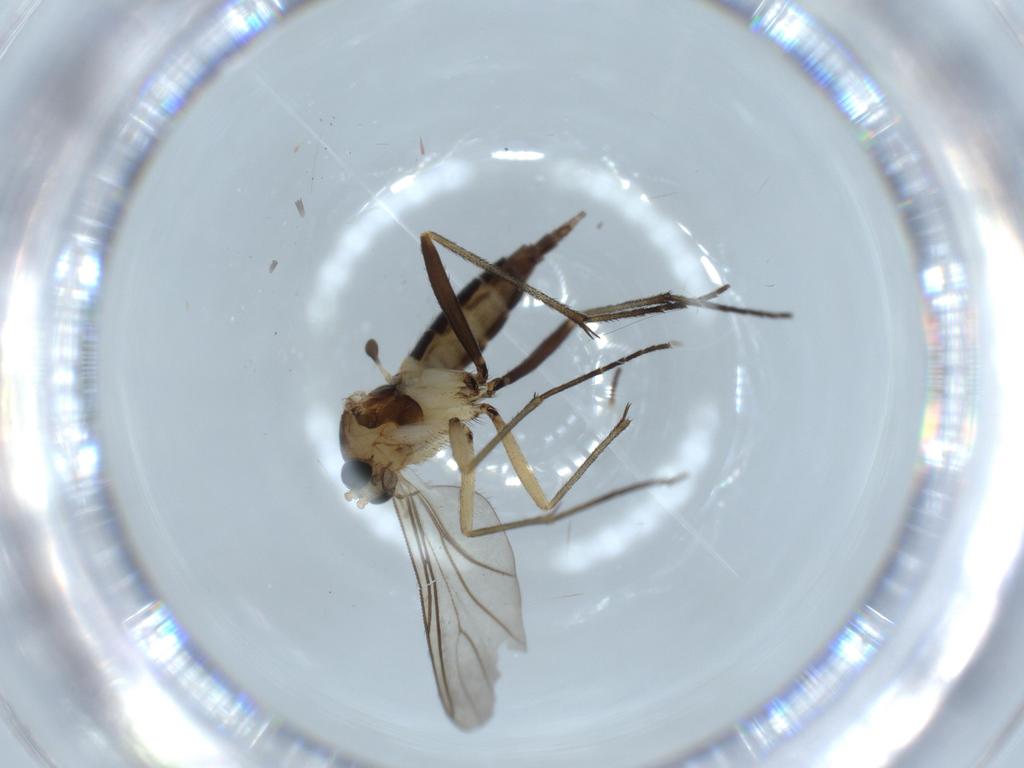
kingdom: Animalia
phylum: Arthropoda
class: Insecta
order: Diptera
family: Sciaridae
